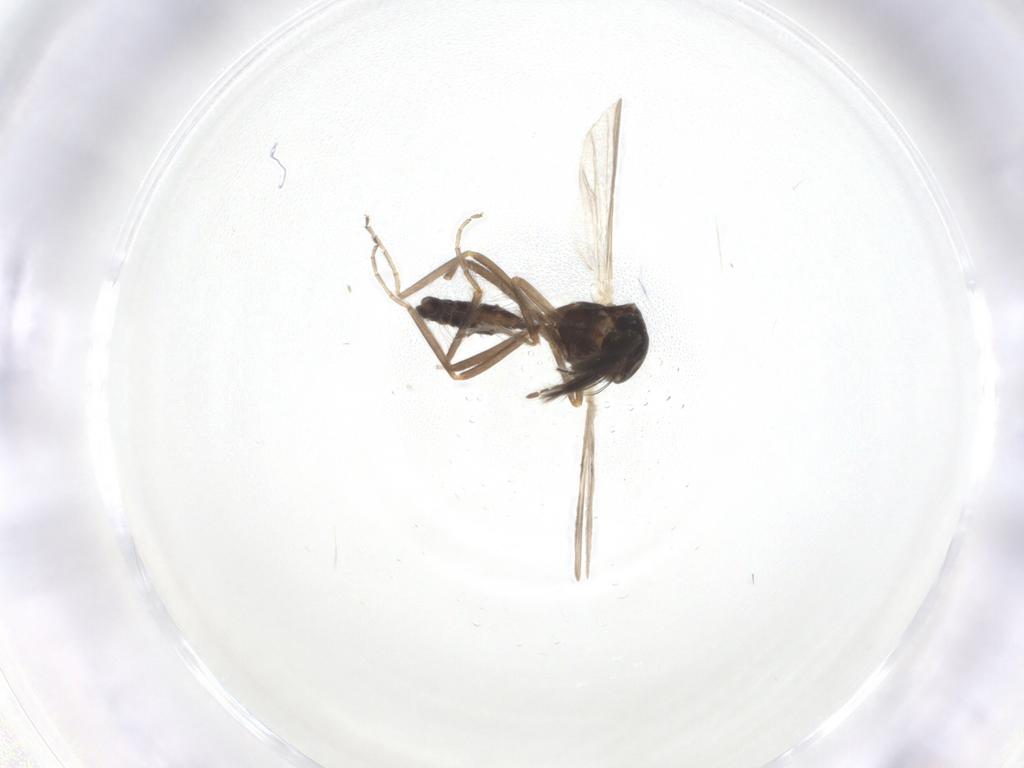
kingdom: Animalia
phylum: Arthropoda
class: Insecta
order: Diptera
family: Ceratopogonidae
